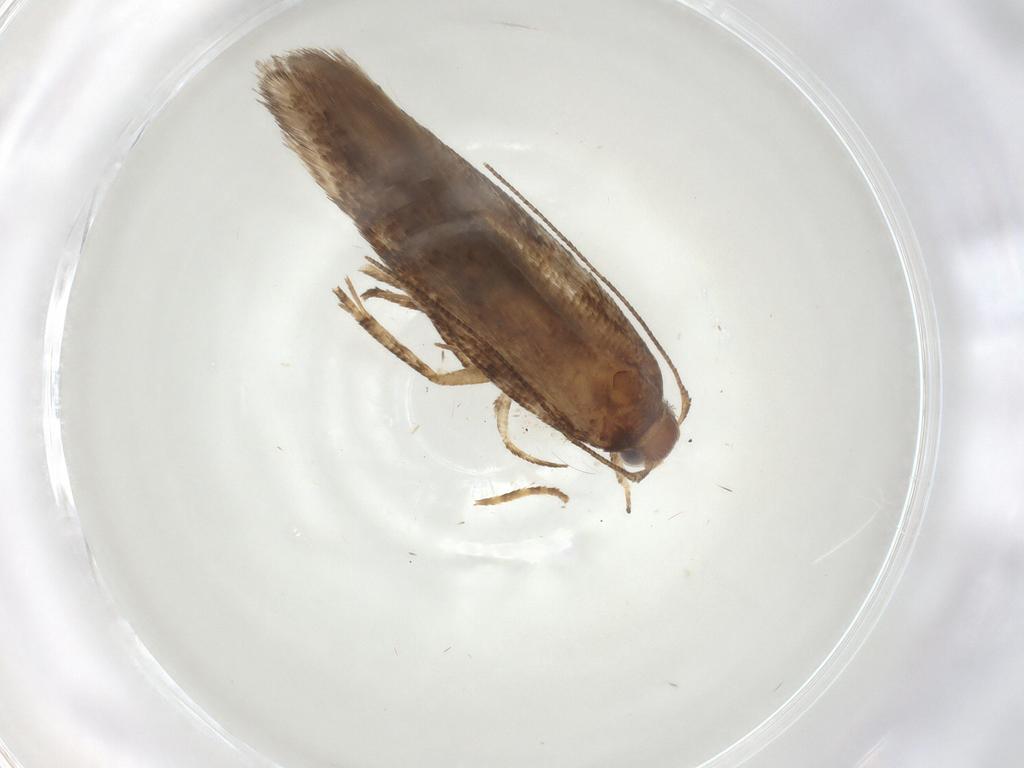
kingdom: Animalia
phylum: Arthropoda
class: Insecta
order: Lepidoptera
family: Gelechiidae
